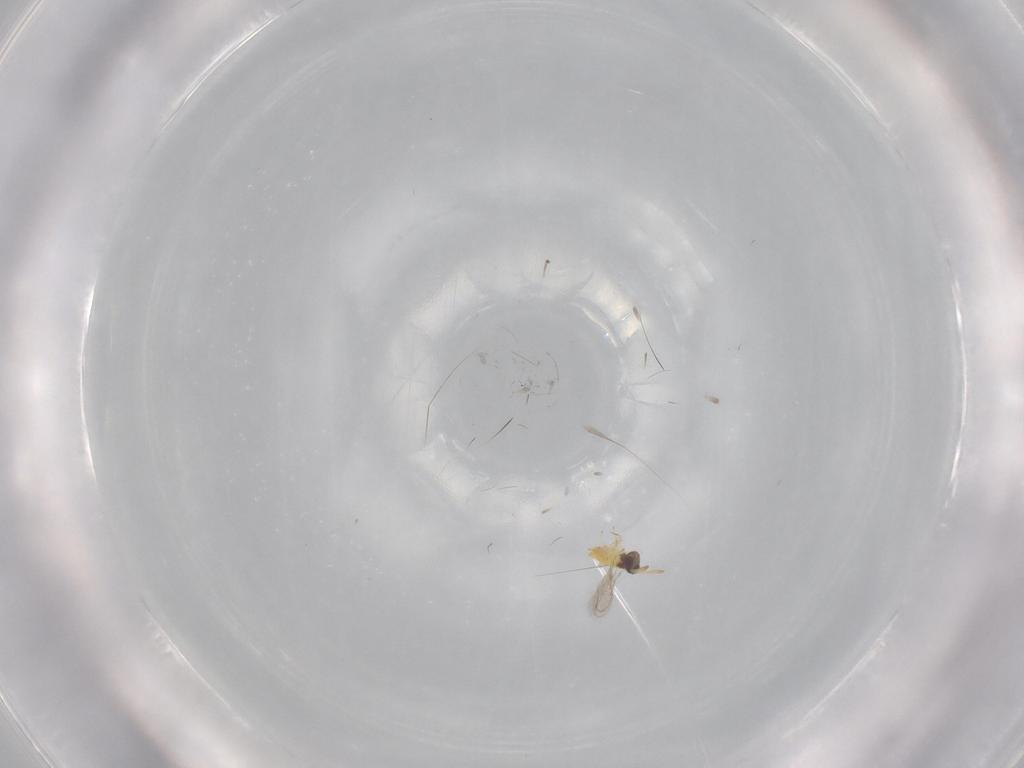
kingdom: Animalia
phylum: Arthropoda
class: Insecta
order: Hymenoptera
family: Aphelinidae
